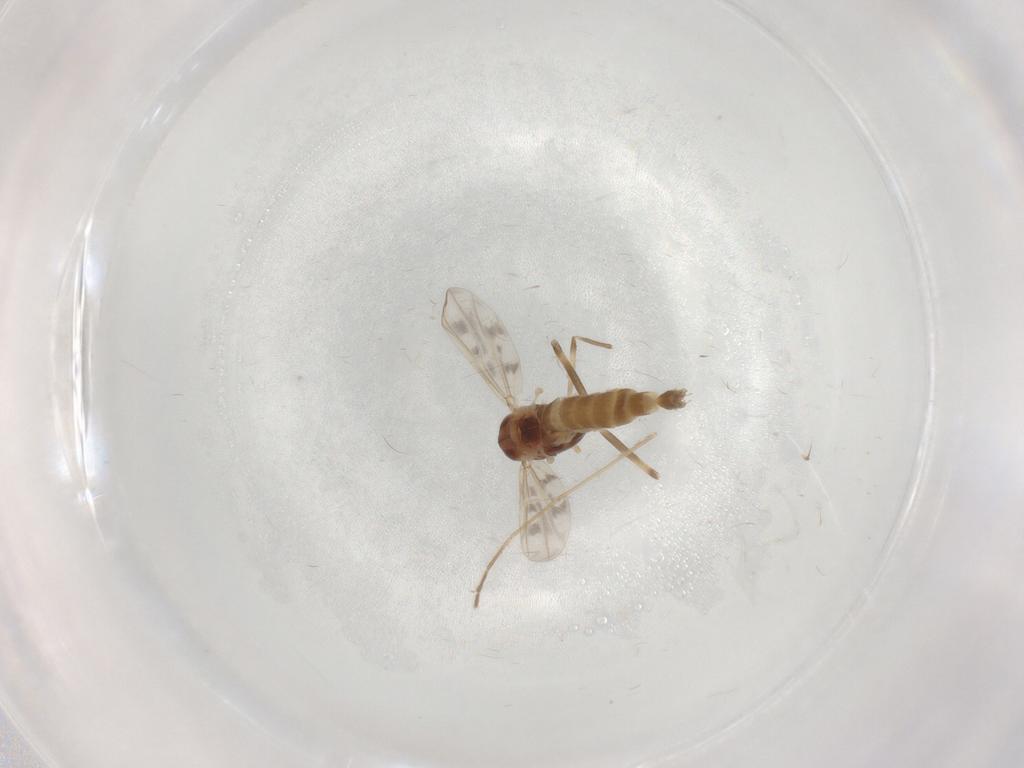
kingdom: Animalia
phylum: Arthropoda
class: Insecta
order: Diptera
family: Chironomidae
